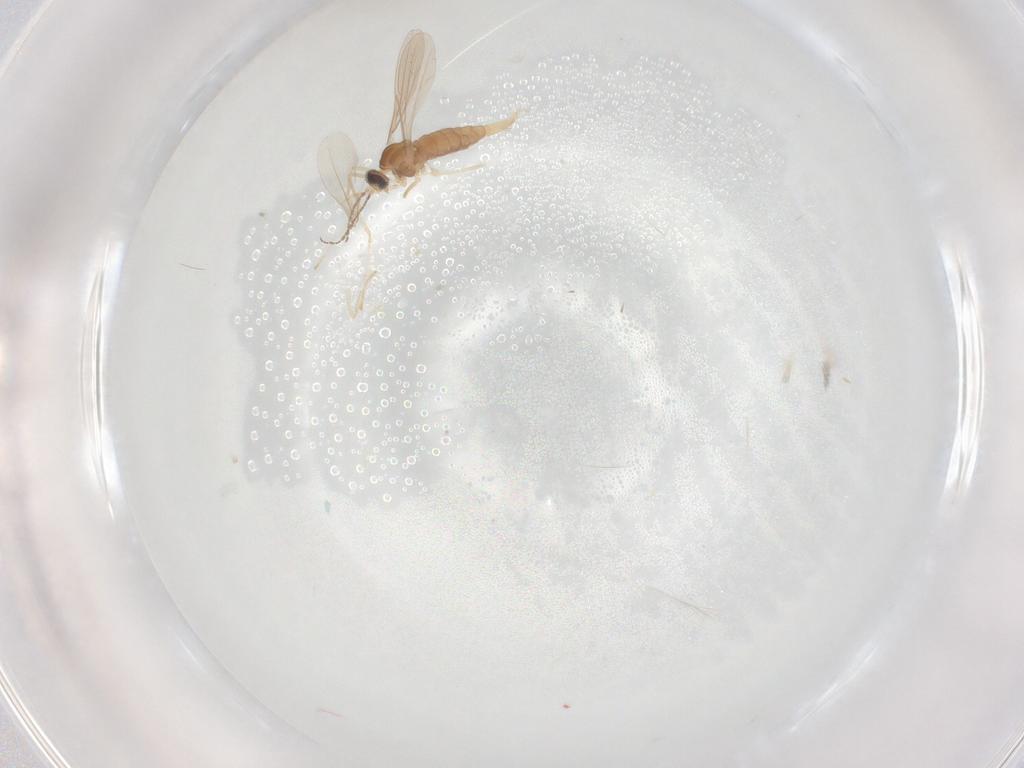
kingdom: Animalia
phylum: Arthropoda
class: Insecta
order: Diptera
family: Cecidomyiidae
